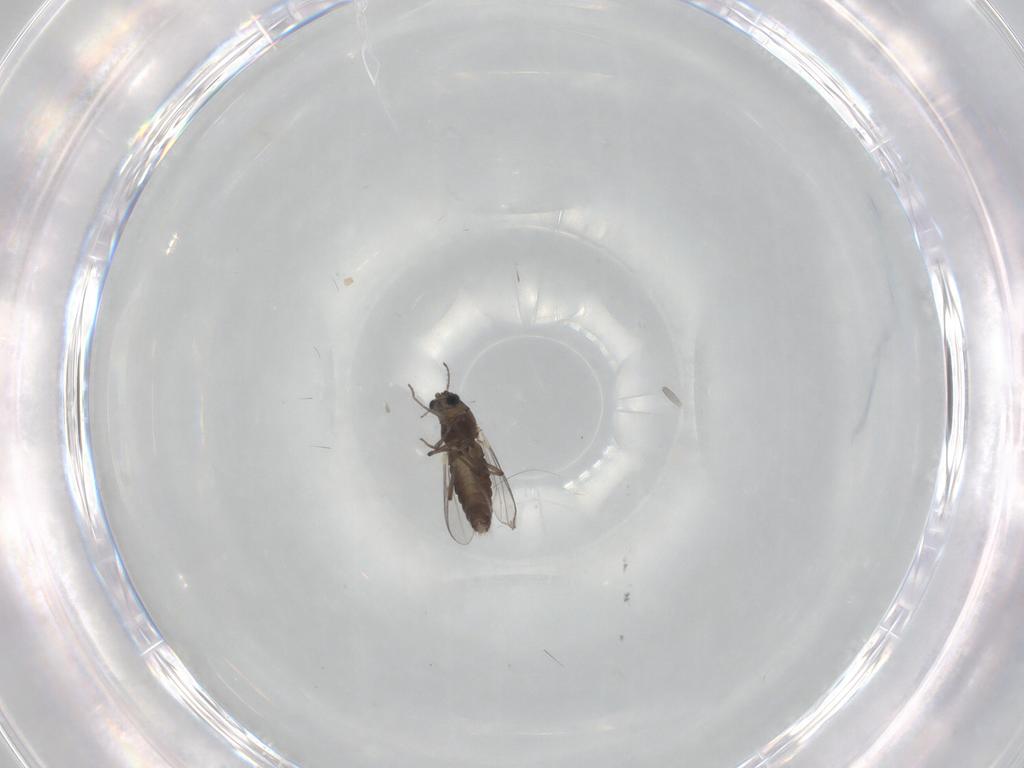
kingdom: Animalia
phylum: Arthropoda
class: Insecta
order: Diptera
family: Chironomidae
